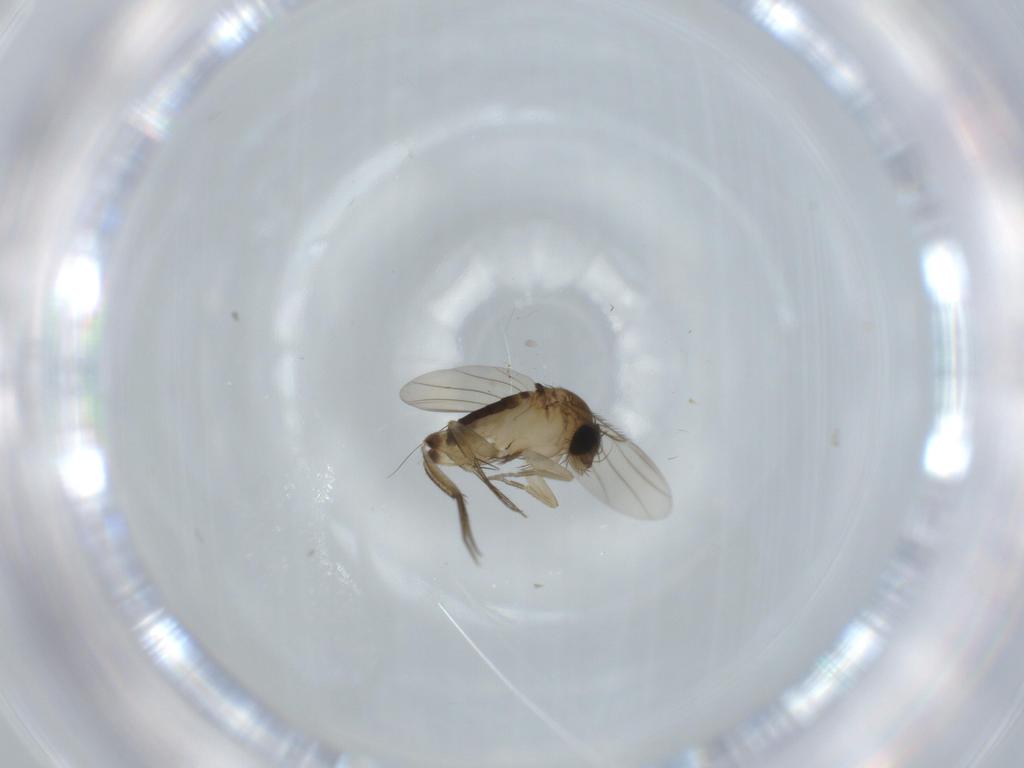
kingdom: Animalia
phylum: Arthropoda
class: Insecta
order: Diptera
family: Phoridae
